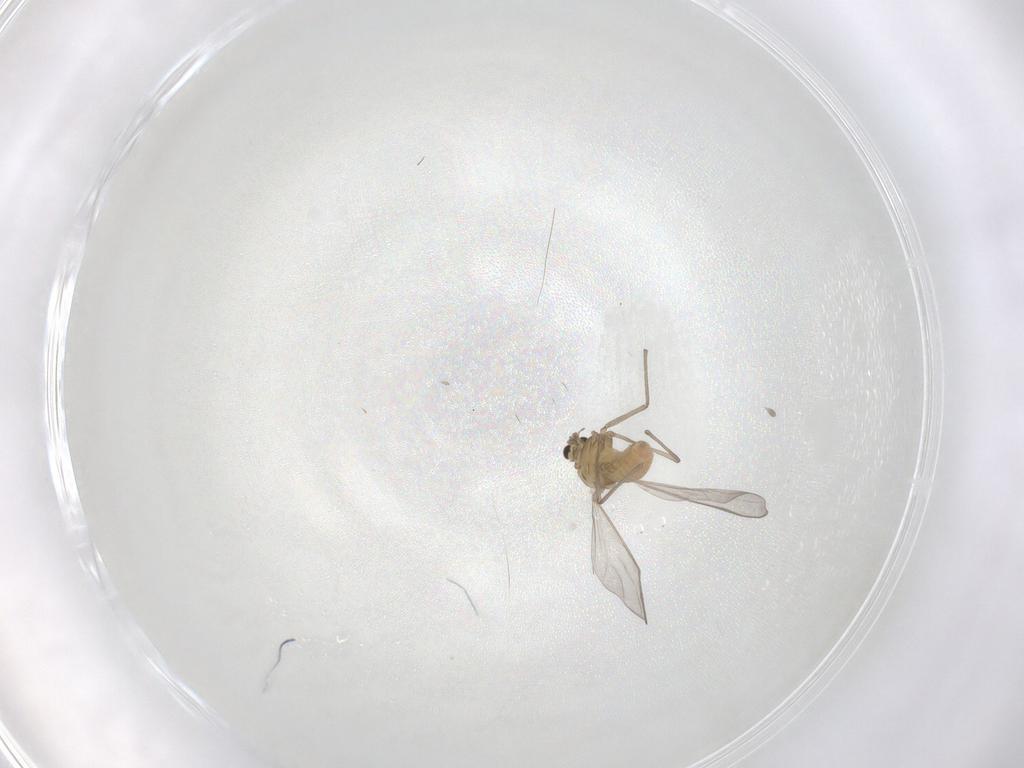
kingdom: Animalia
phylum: Arthropoda
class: Insecta
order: Diptera
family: Chironomidae
